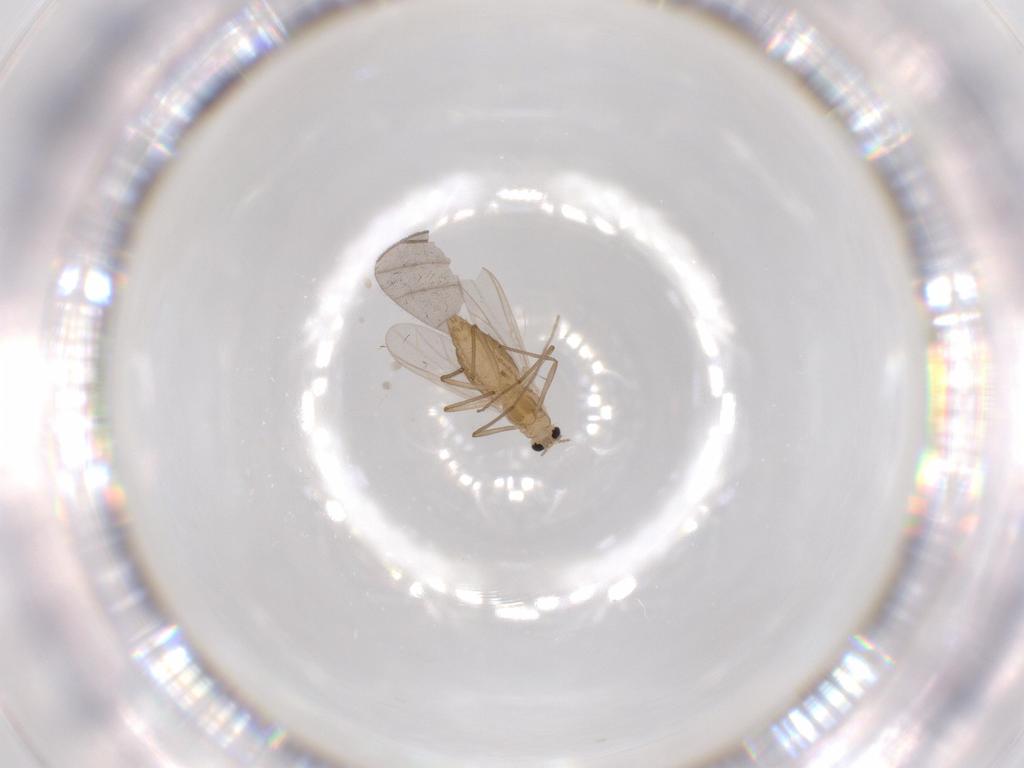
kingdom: Animalia
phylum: Arthropoda
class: Insecta
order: Diptera
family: Chironomidae
